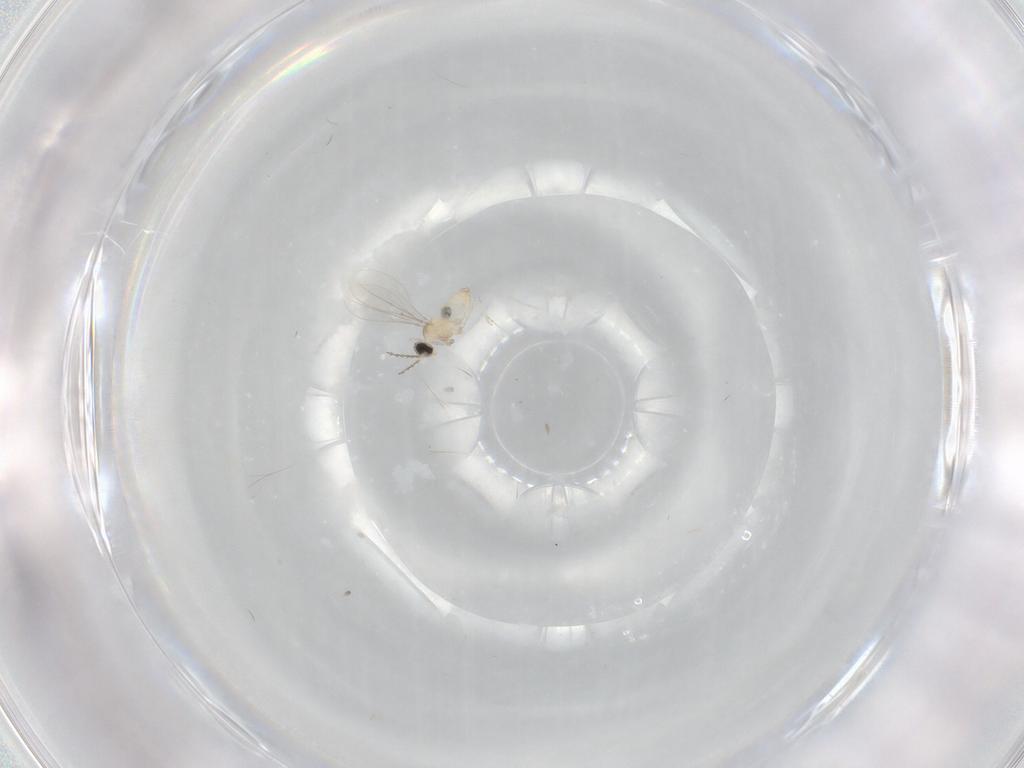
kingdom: Animalia
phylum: Arthropoda
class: Insecta
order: Diptera
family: Cecidomyiidae
